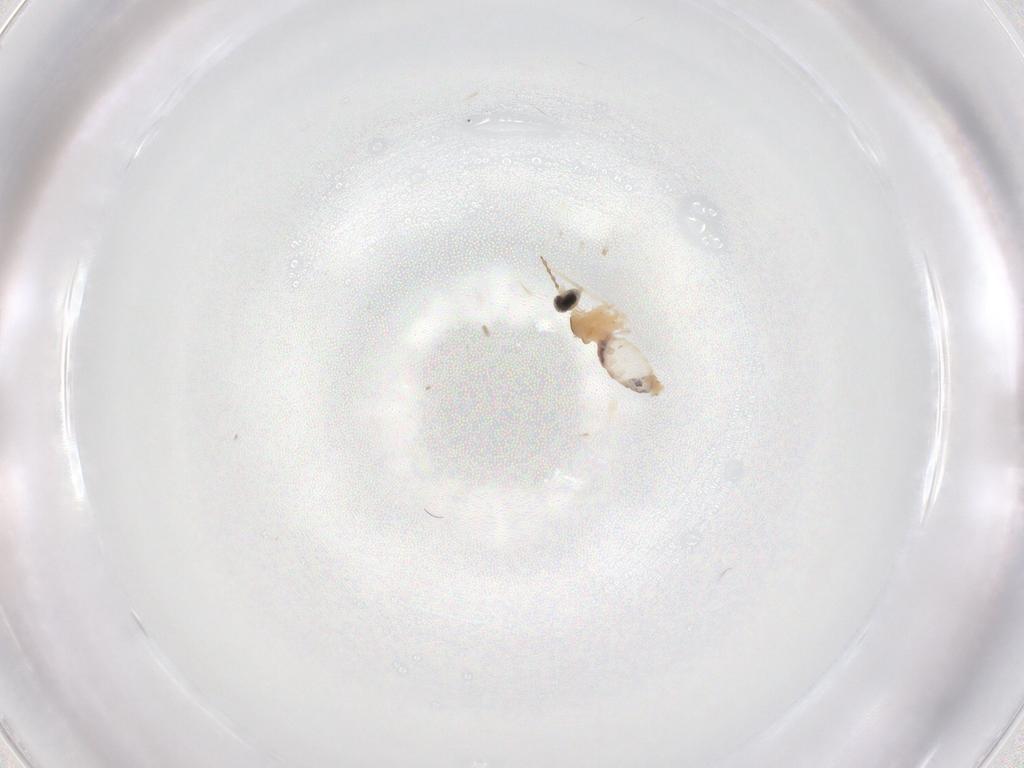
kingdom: Animalia
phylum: Arthropoda
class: Insecta
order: Diptera
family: Cecidomyiidae
